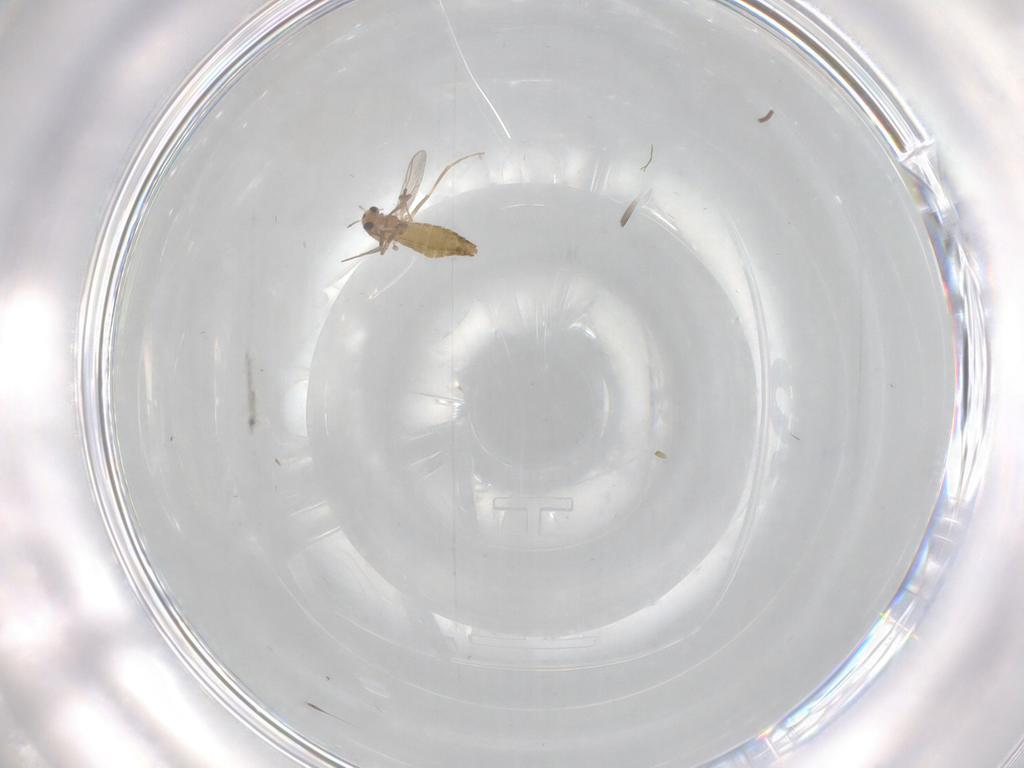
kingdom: Animalia
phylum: Arthropoda
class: Insecta
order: Diptera
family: Chironomidae
